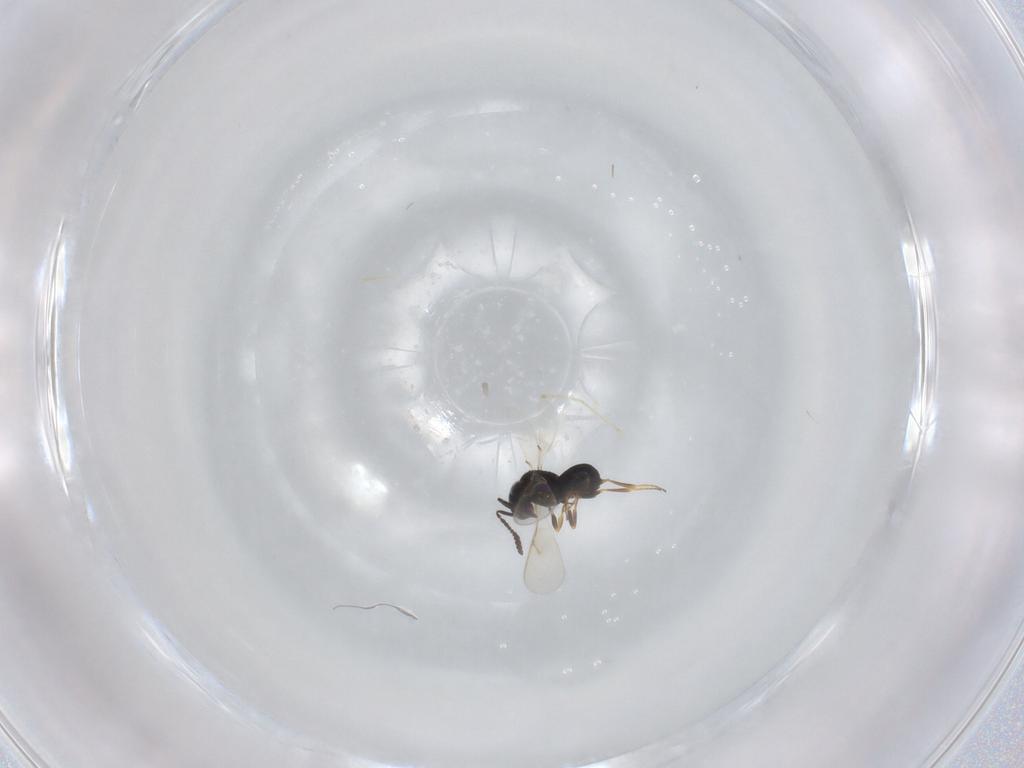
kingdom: Animalia
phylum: Arthropoda
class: Insecta
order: Hymenoptera
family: Scelionidae
